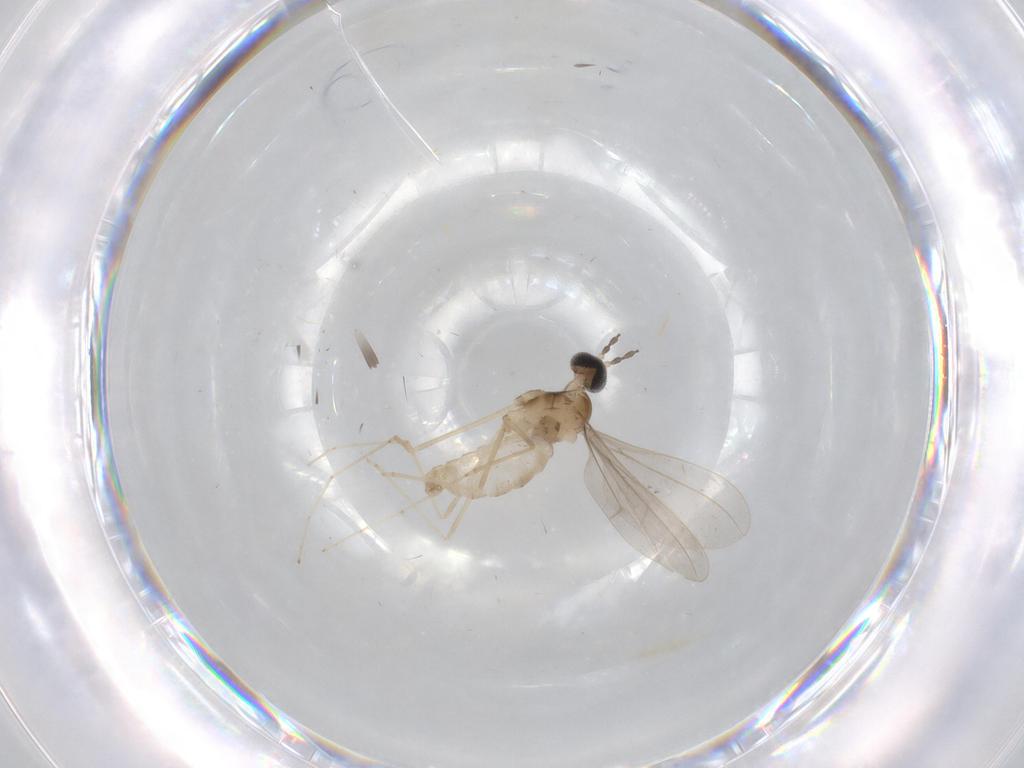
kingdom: Animalia
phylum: Arthropoda
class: Insecta
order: Diptera
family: Cecidomyiidae
